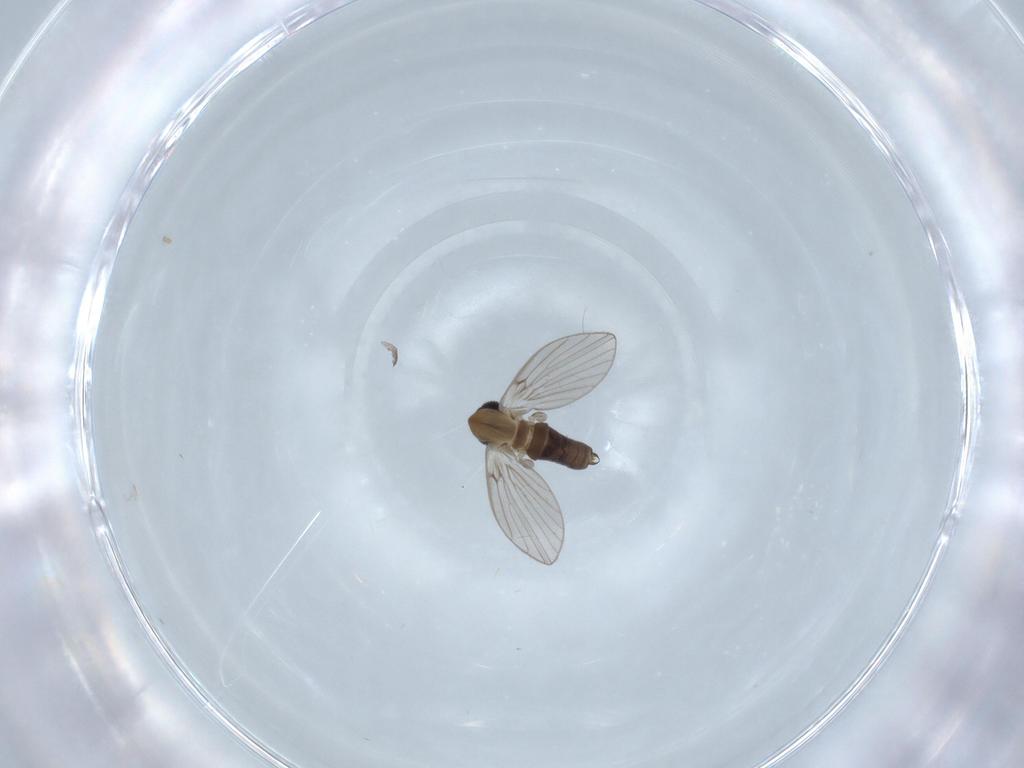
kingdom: Animalia
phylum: Arthropoda
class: Insecta
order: Diptera
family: Psychodidae
